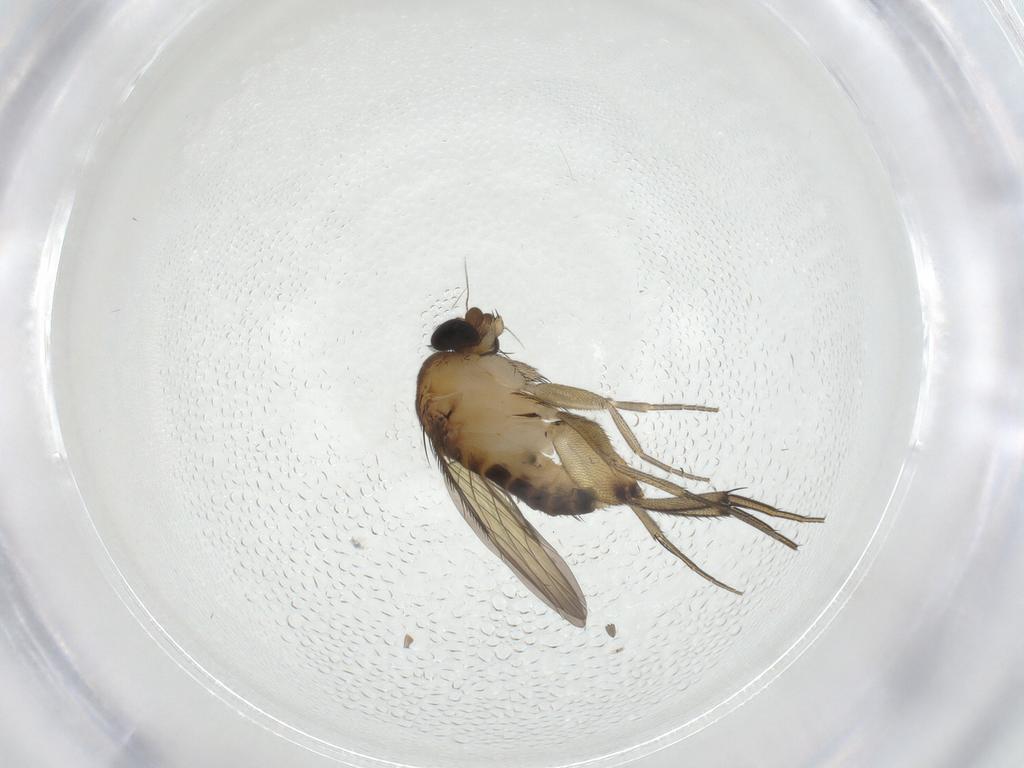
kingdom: Animalia
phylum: Arthropoda
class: Insecta
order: Diptera
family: Phoridae
